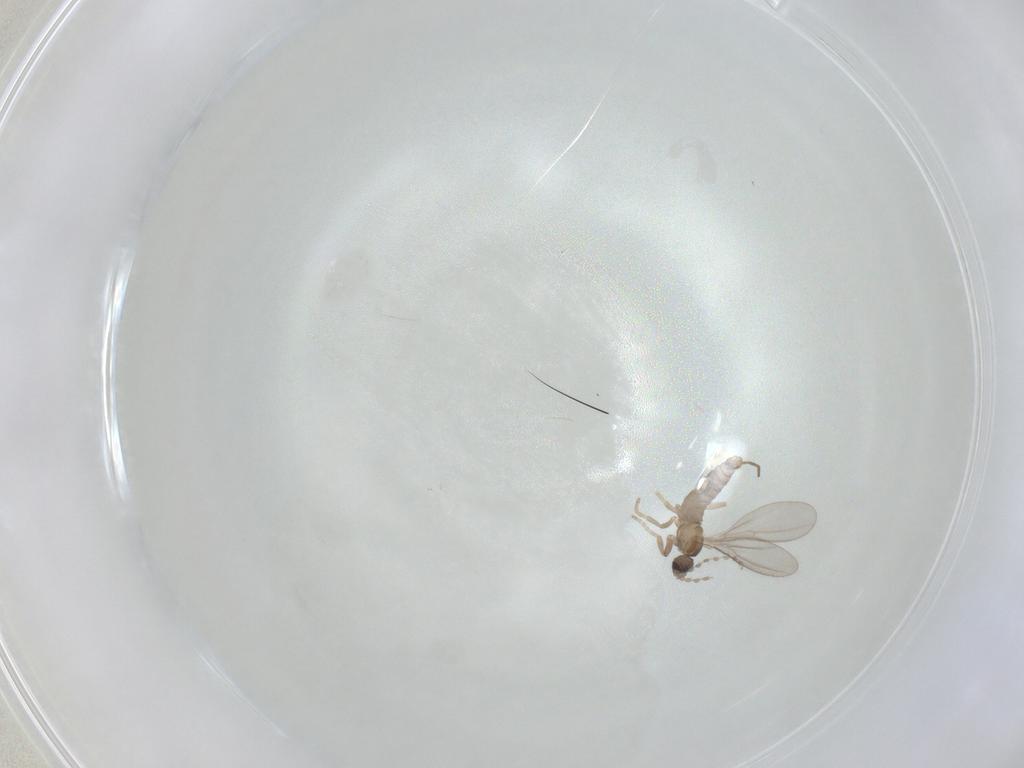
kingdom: Animalia
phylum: Arthropoda
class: Insecta
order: Diptera
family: Chironomidae
